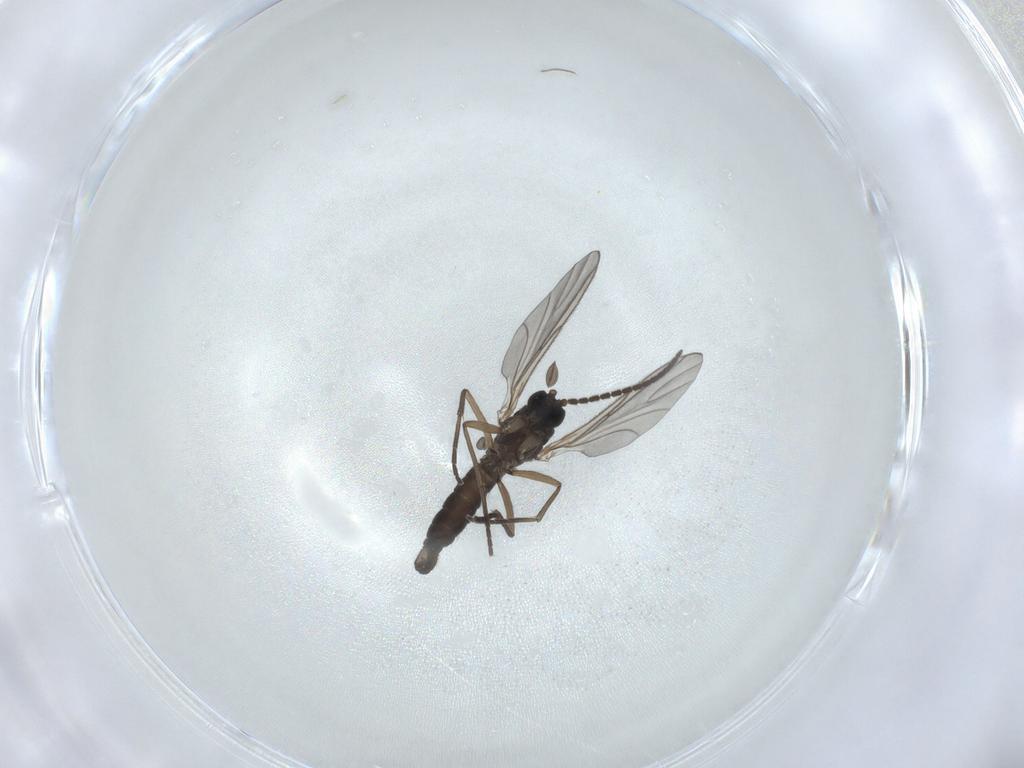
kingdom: Animalia
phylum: Arthropoda
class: Insecta
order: Diptera
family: Sciaridae
